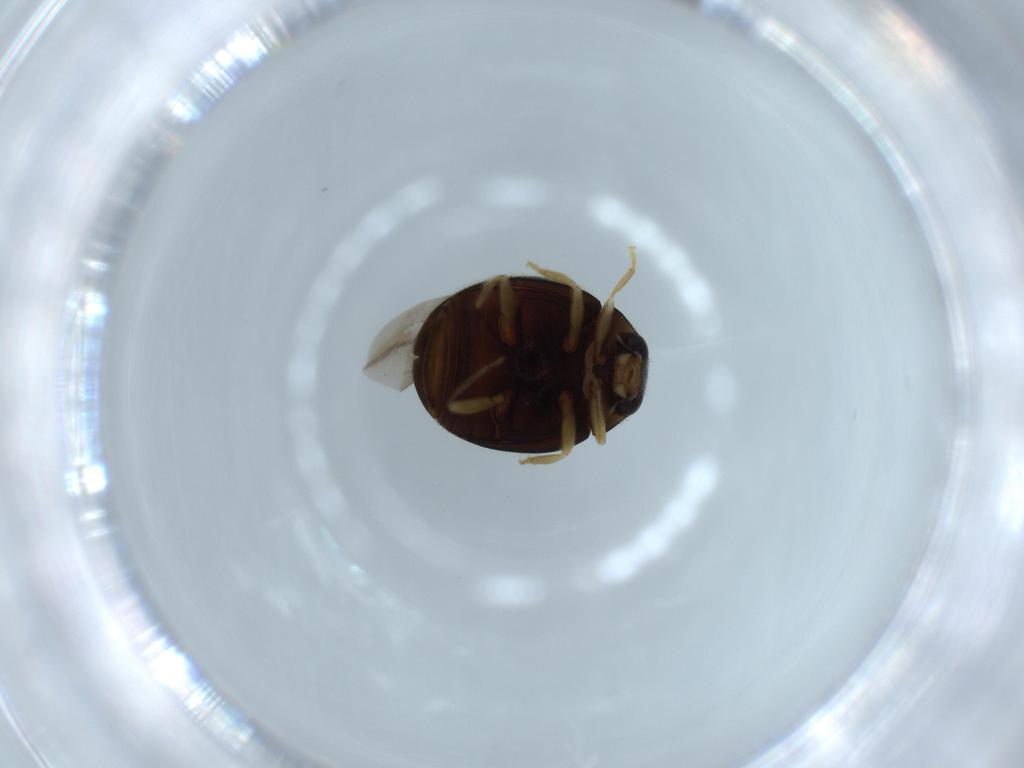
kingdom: Animalia
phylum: Arthropoda
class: Insecta
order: Coleoptera
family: Coccinellidae
